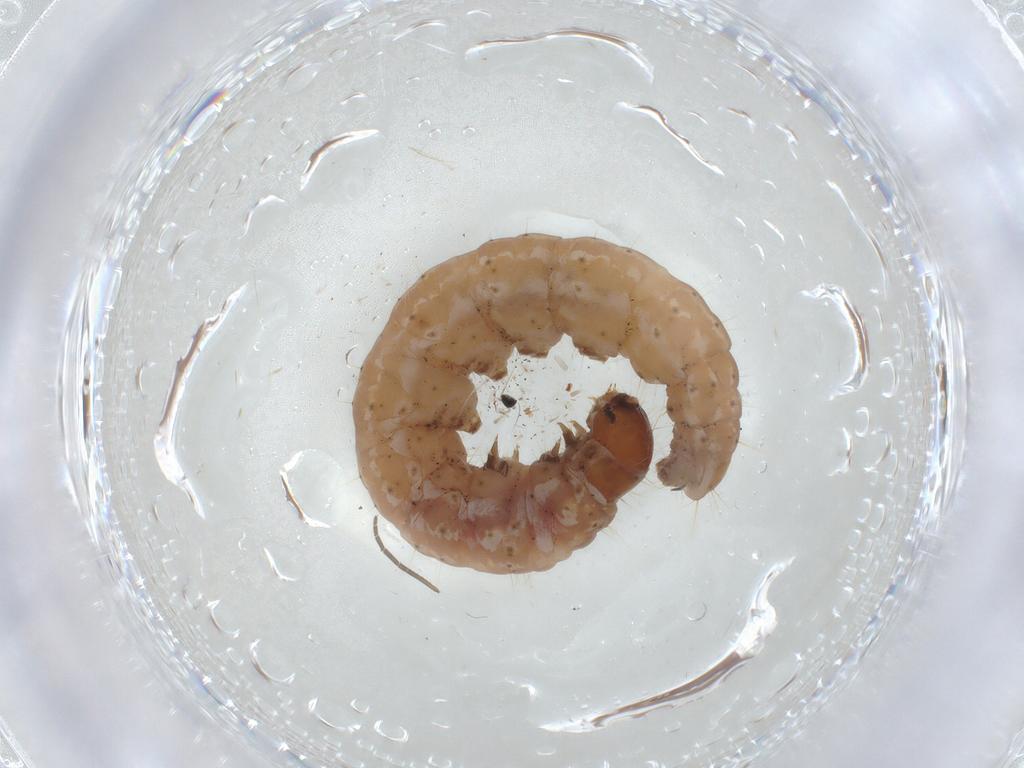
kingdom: Animalia
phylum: Arthropoda
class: Insecta
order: Lepidoptera
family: Gelechiidae
